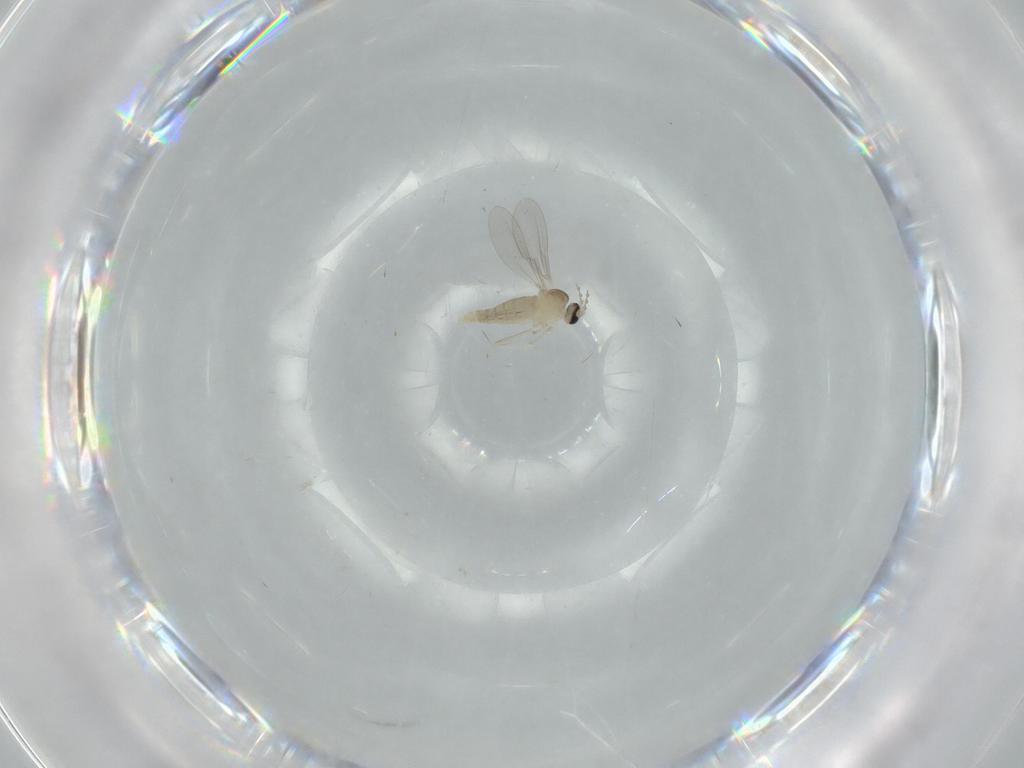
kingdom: Animalia
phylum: Arthropoda
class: Insecta
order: Diptera
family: Cecidomyiidae
